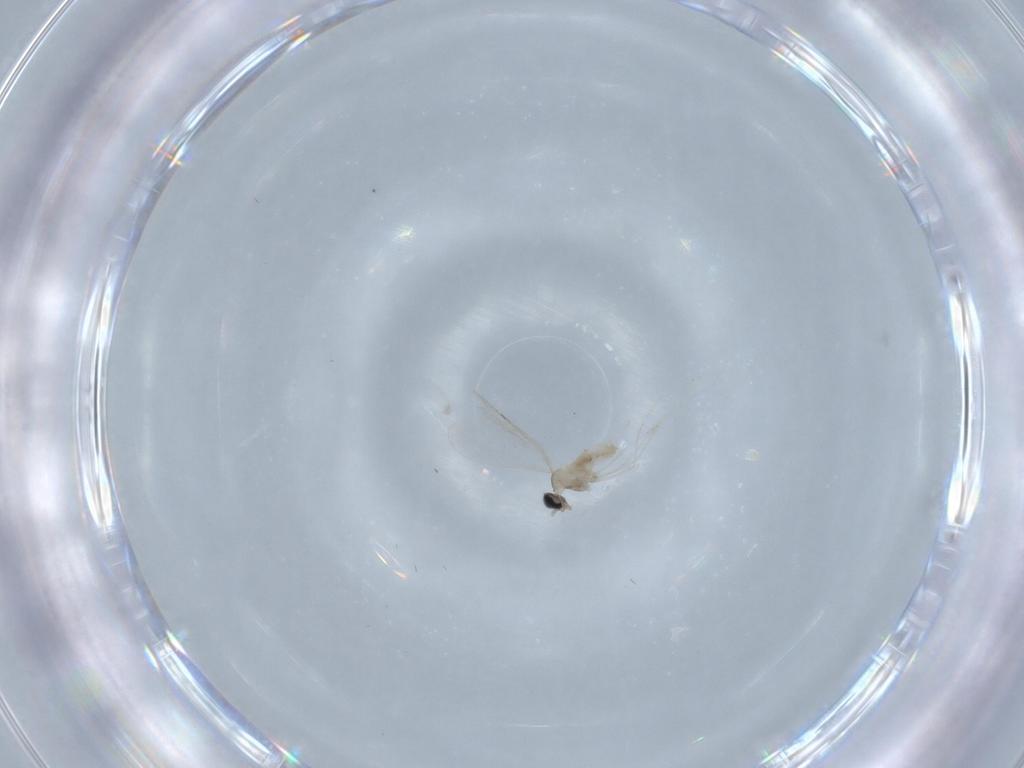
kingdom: Animalia
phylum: Arthropoda
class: Insecta
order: Diptera
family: Cecidomyiidae
